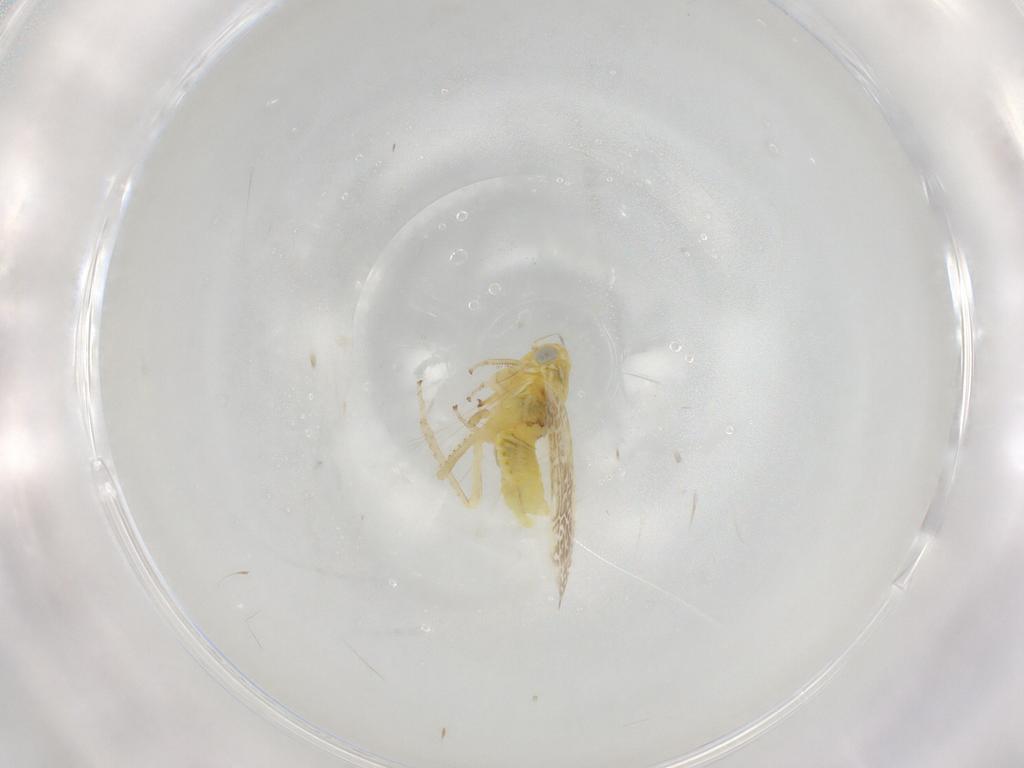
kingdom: Animalia
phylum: Arthropoda
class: Insecta
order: Hemiptera
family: Cicadellidae
